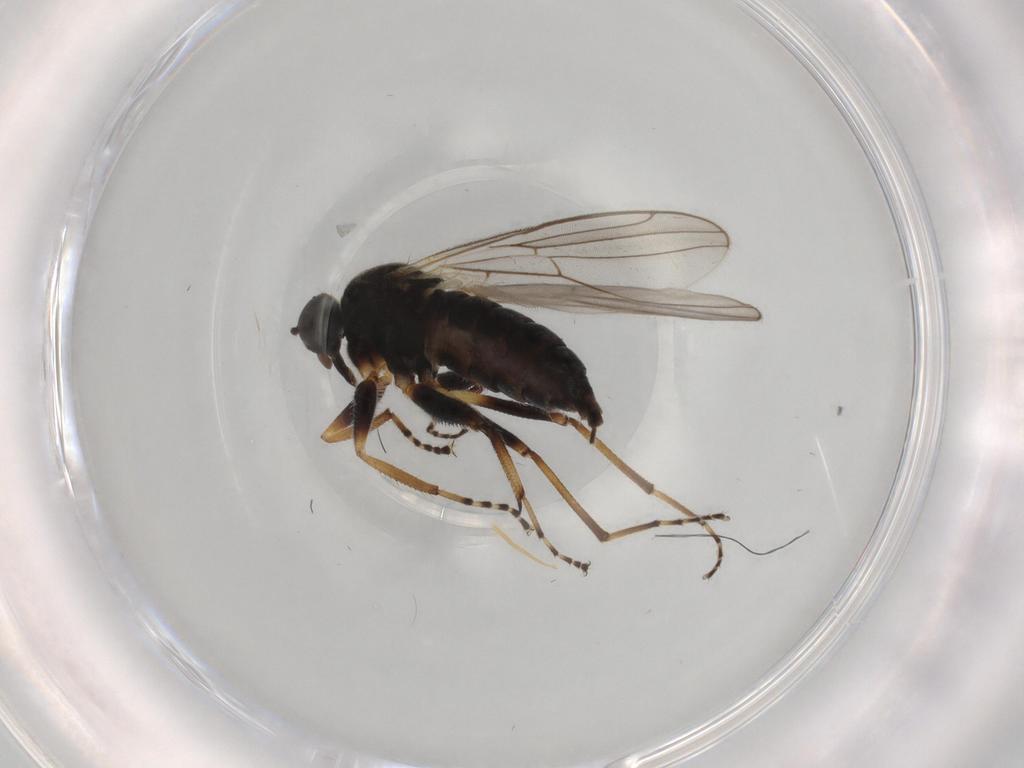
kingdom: Animalia
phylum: Arthropoda
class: Insecta
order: Diptera
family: Hybotidae
